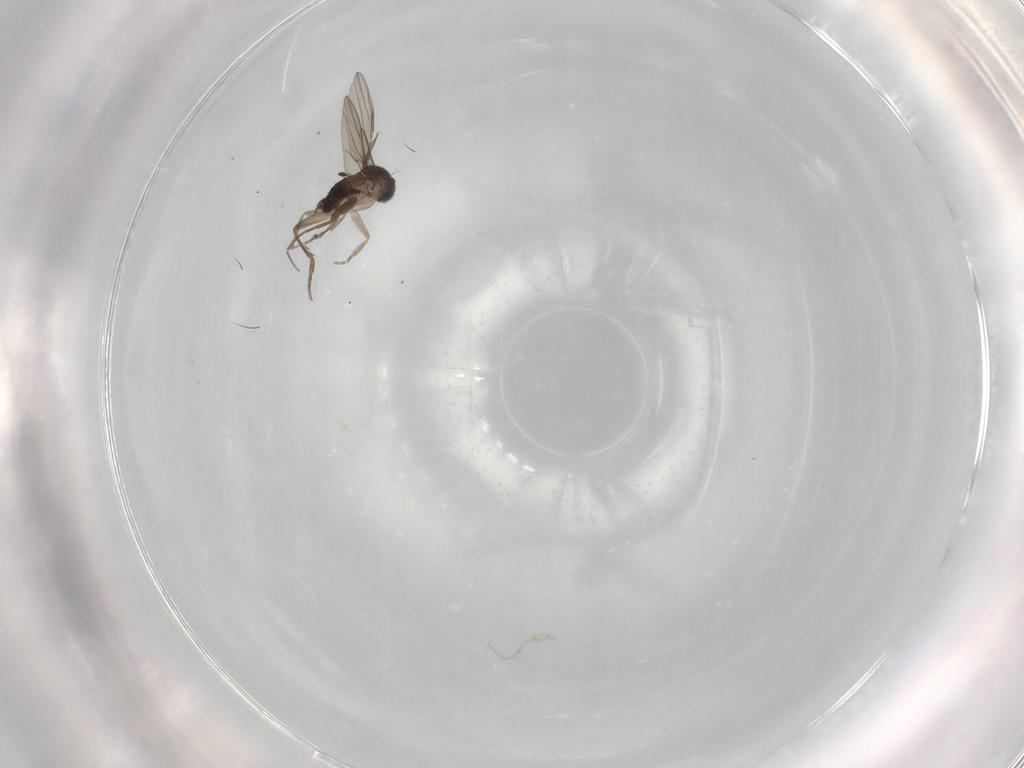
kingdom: Animalia
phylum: Arthropoda
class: Insecta
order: Diptera
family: Phoridae
